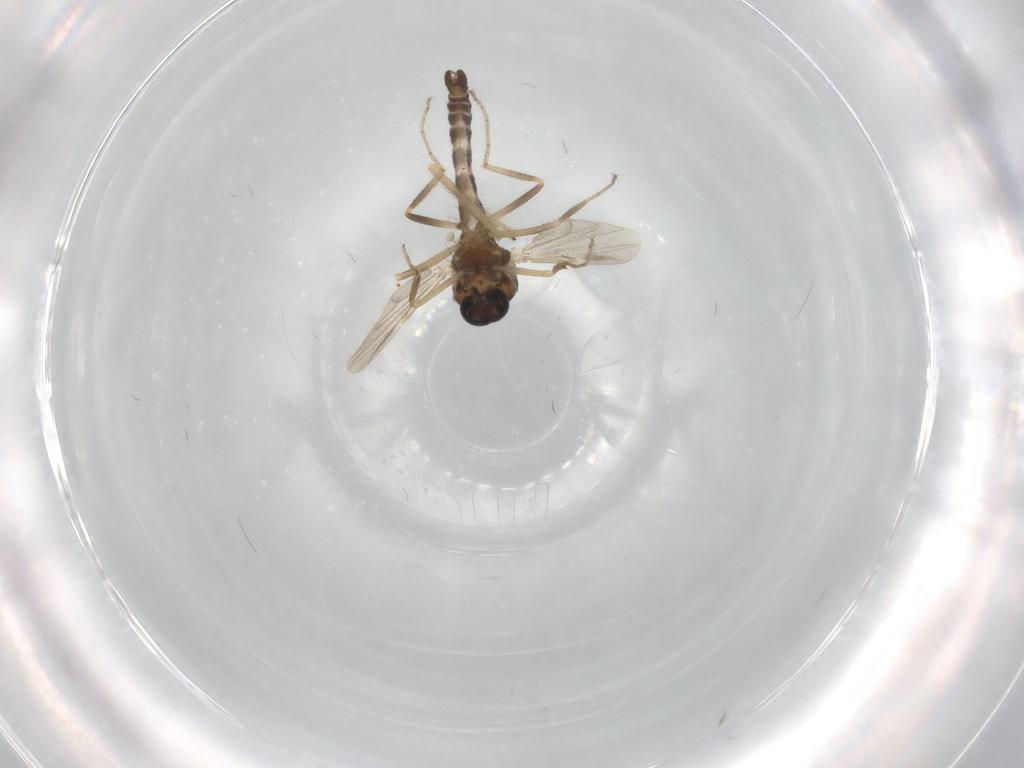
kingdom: Animalia
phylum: Arthropoda
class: Insecta
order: Diptera
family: Chironomidae
